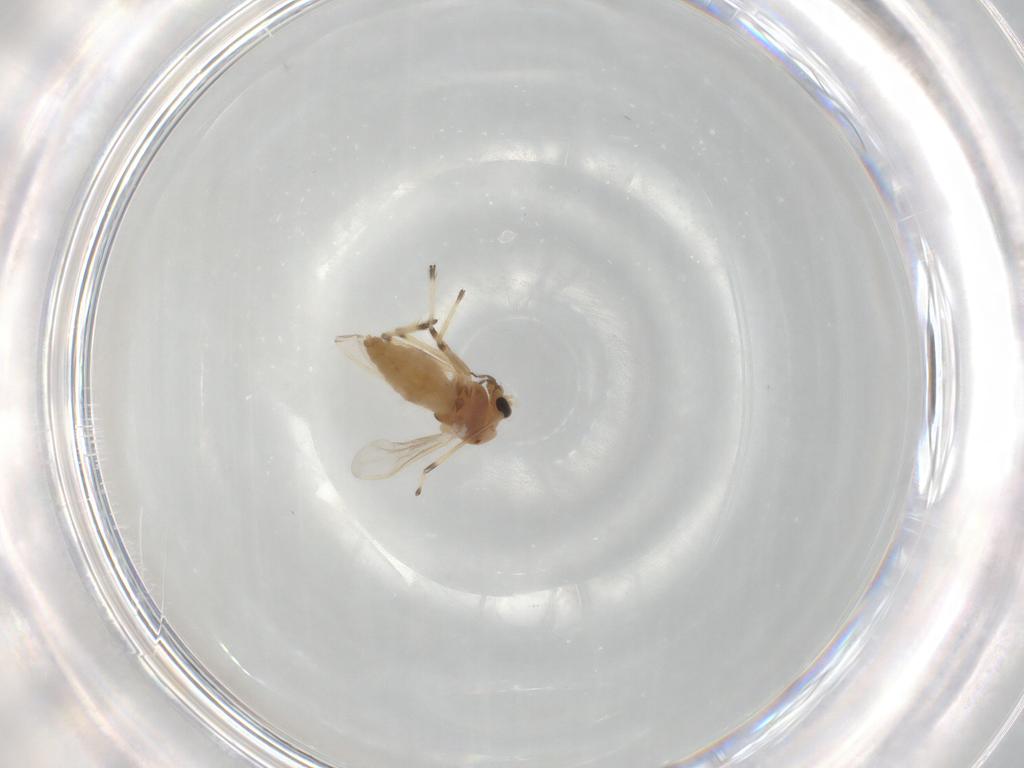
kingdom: Animalia
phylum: Arthropoda
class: Insecta
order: Diptera
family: Chironomidae
